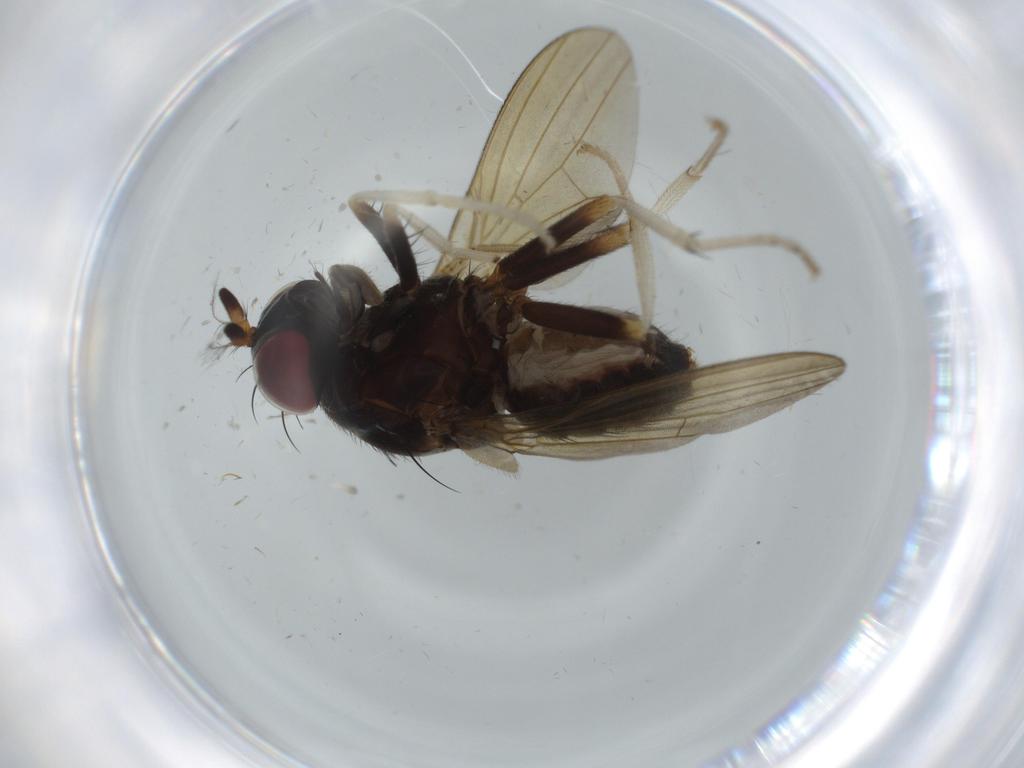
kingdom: Animalia
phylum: Arthropoda
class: Insecta
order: Diptera
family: Lauxaniidae
